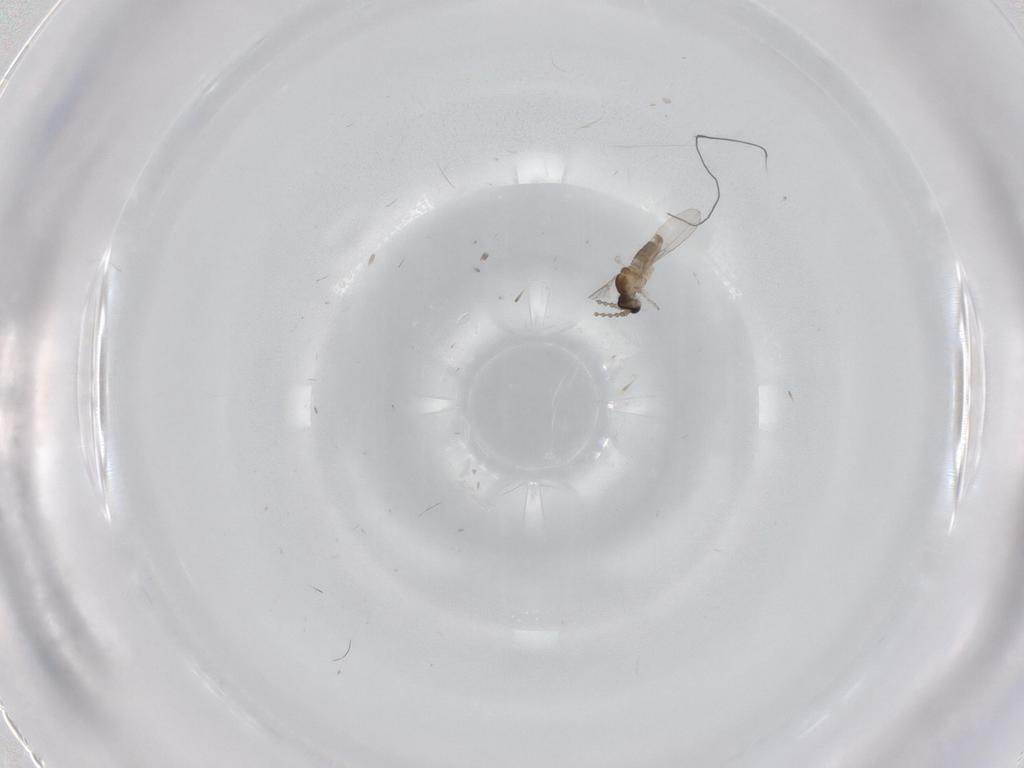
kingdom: Animalia
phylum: Arthropoda
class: Insecta
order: Diptera
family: Cecidomyiidae
